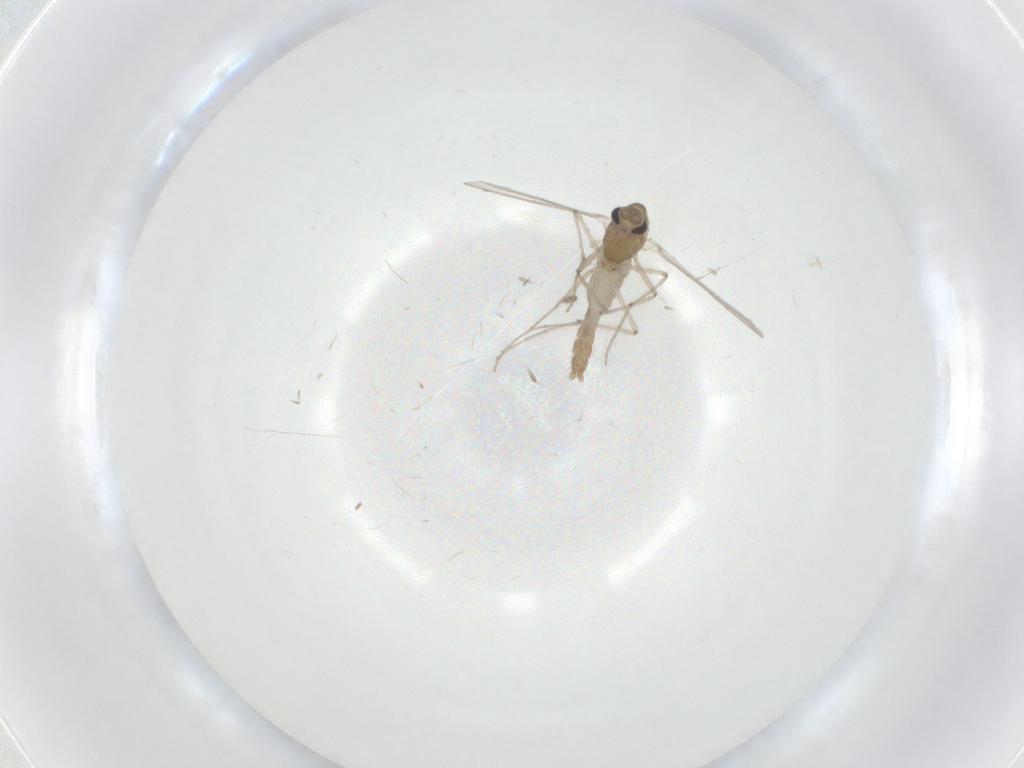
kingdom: Animalia
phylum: Arthropoda
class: Insecta
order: Diptera
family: Chironomidae
